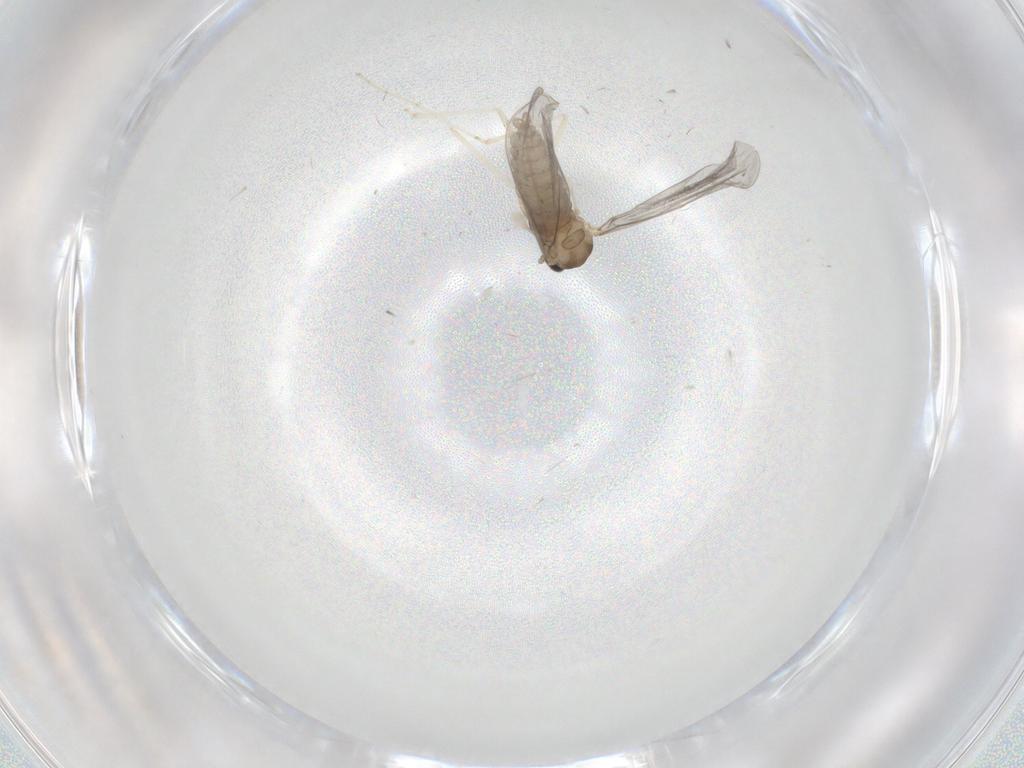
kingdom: Animalia
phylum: Arthropoda
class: Insecta
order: Diptera
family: Cecidomyiidae
